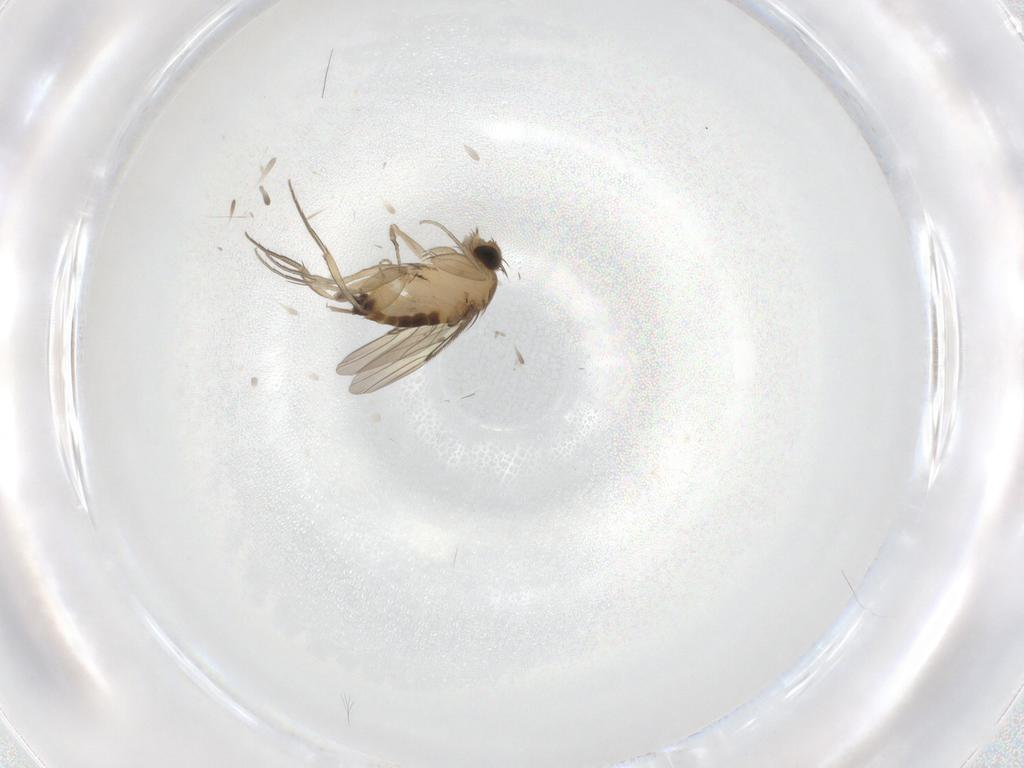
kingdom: Animalia
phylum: Arthropoda
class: Insecta
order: Diptera
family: Phoridae
